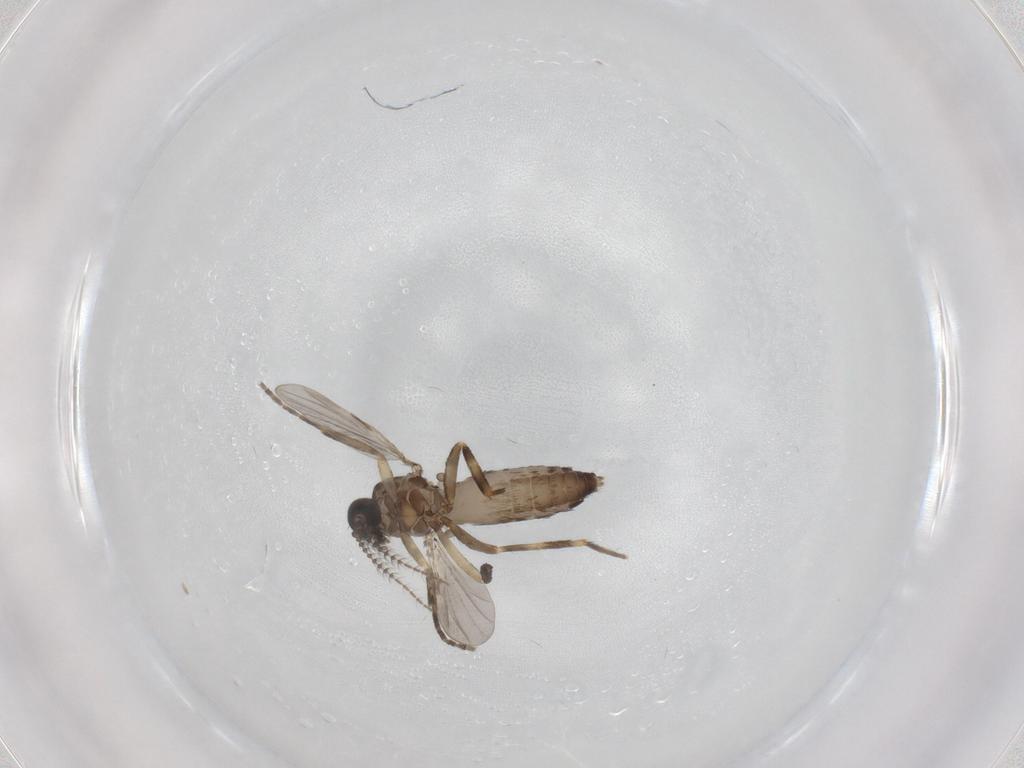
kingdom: Animalia
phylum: Arthropoda
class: Insecta
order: Diptera
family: Ceratopogonidae
